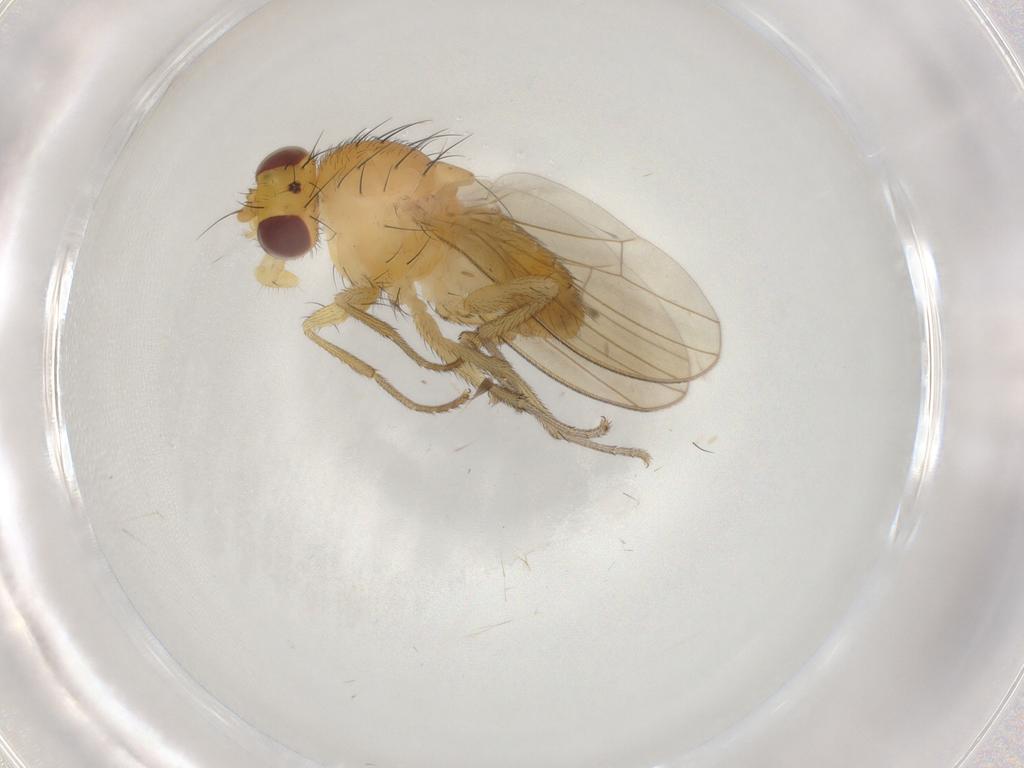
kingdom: Animalia
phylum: Arthropoda
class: Insecta
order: Diptera
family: Lauxaniidae
